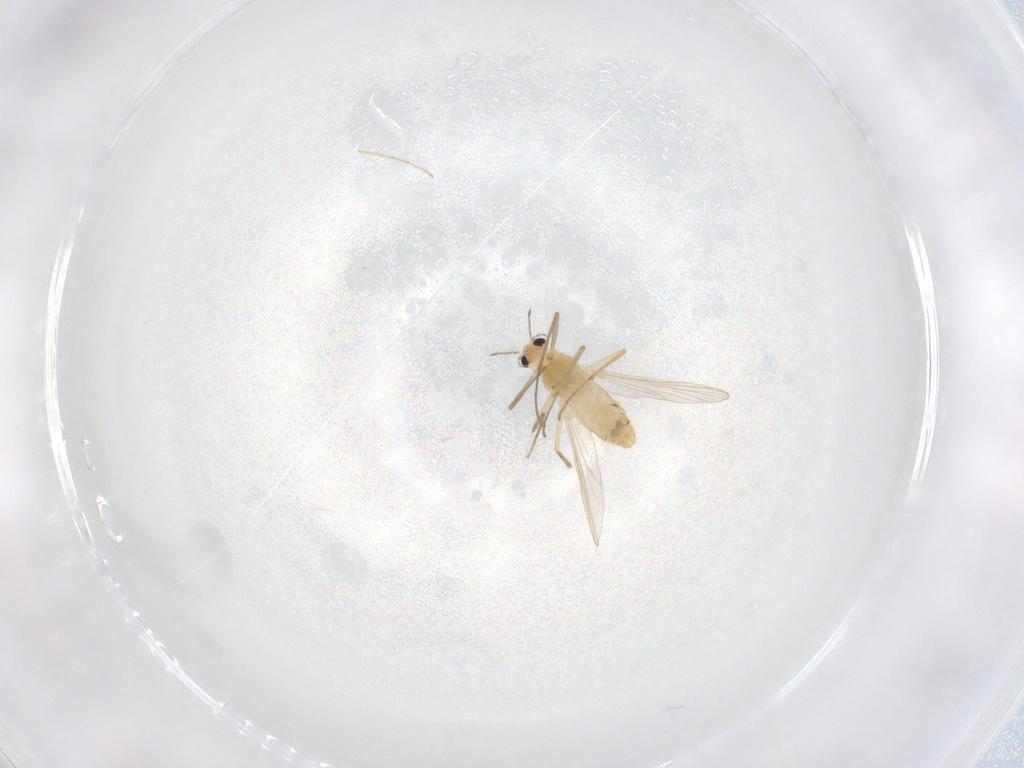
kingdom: Animalia
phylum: Arthropoda
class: Insecta
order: Diptera
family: Chironomidae
